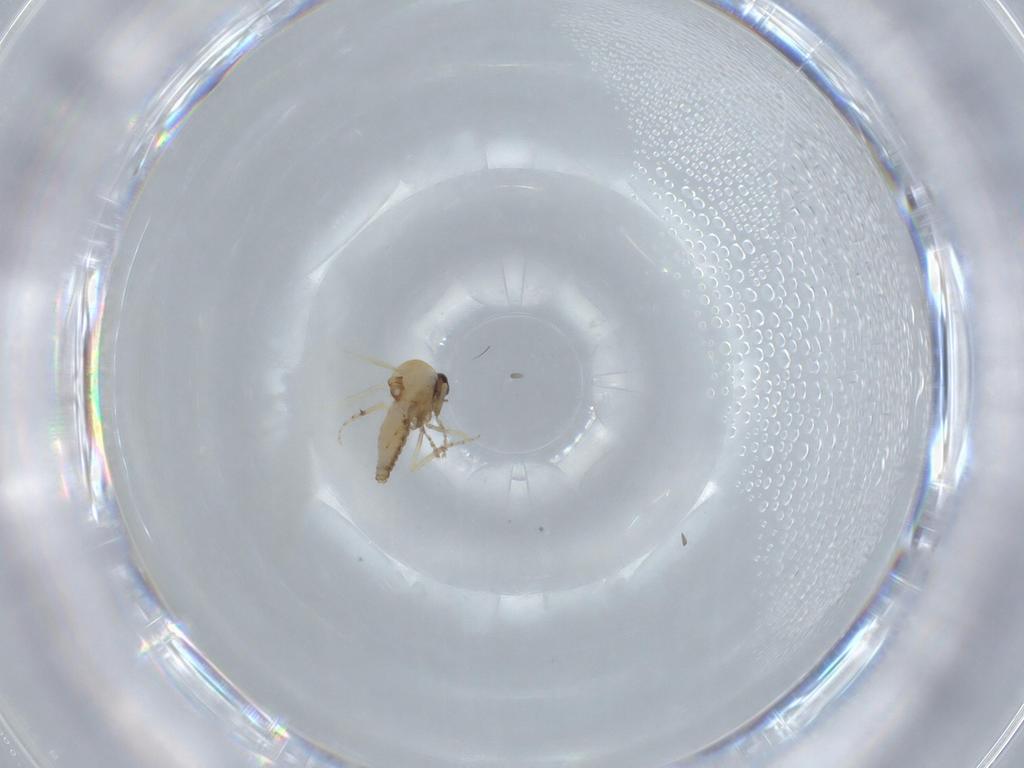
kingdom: Animalia
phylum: Arthropoda
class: Insecta
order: Diptera
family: Ceratopogonidae
